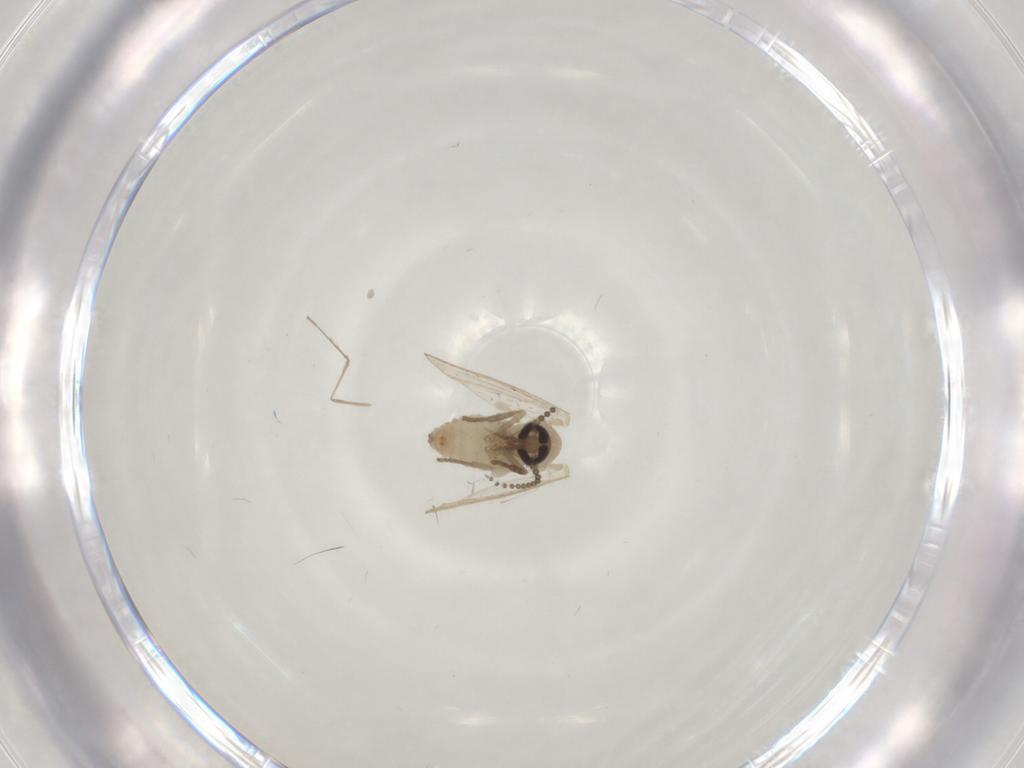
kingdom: Animalia
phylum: Arthropoda
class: Insecta
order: Diptera
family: Psychodidae
